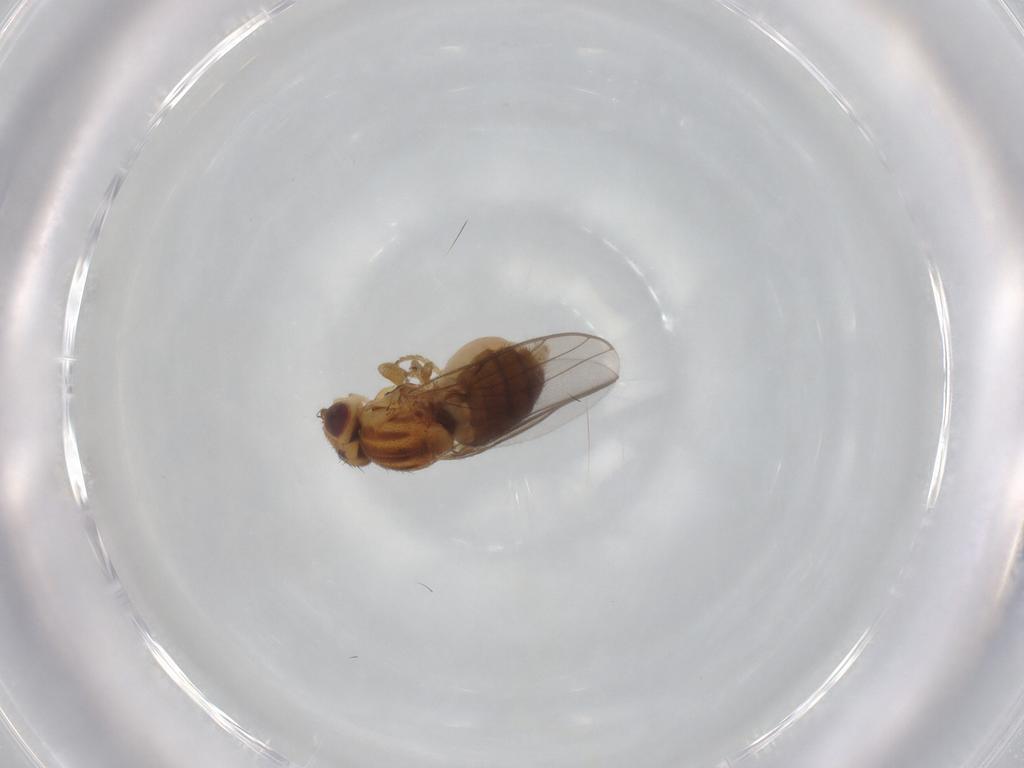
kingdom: Animalia
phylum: Arthropoda
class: Insecta
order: Diptera
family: Chloropidae
